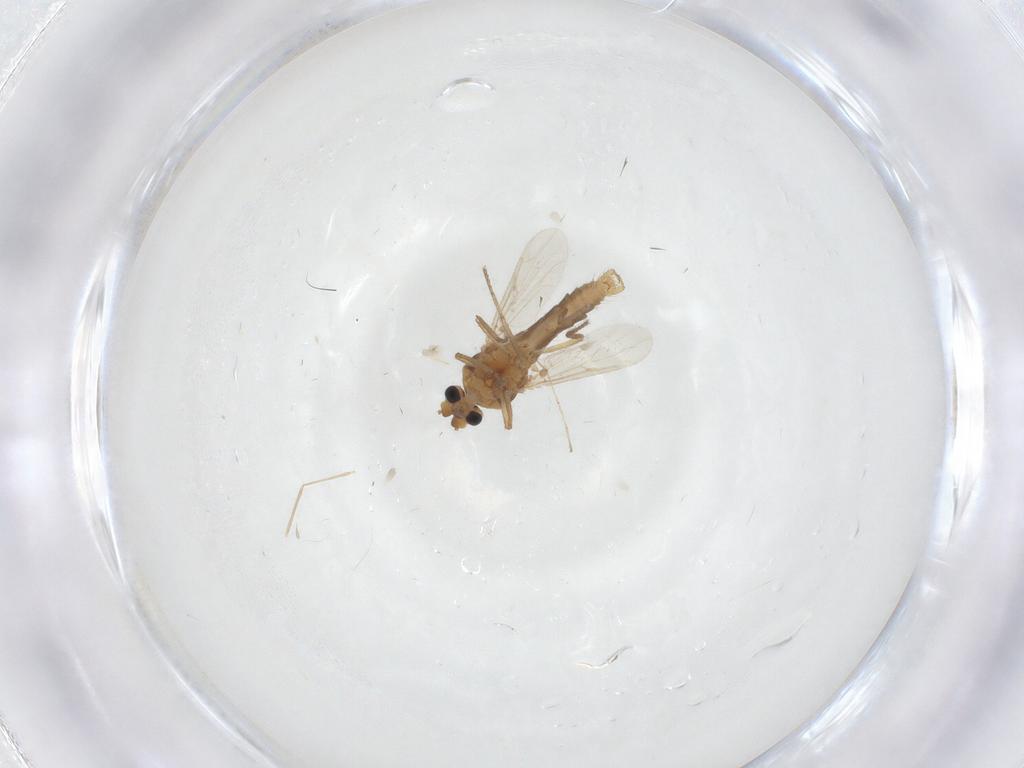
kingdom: Animalia
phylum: Arthropoda
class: Insecta
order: Diptera
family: Ceratopogonidae
